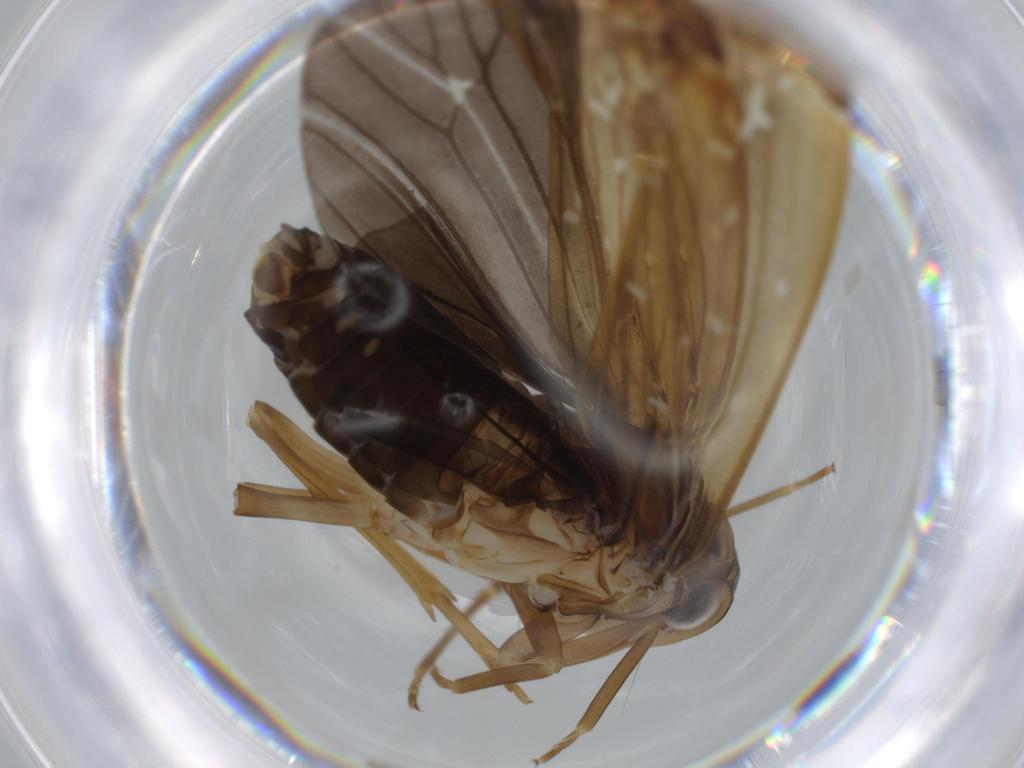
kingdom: Animalia
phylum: Arthropoda
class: Insecta
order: Hemiptera
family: Achilidae
